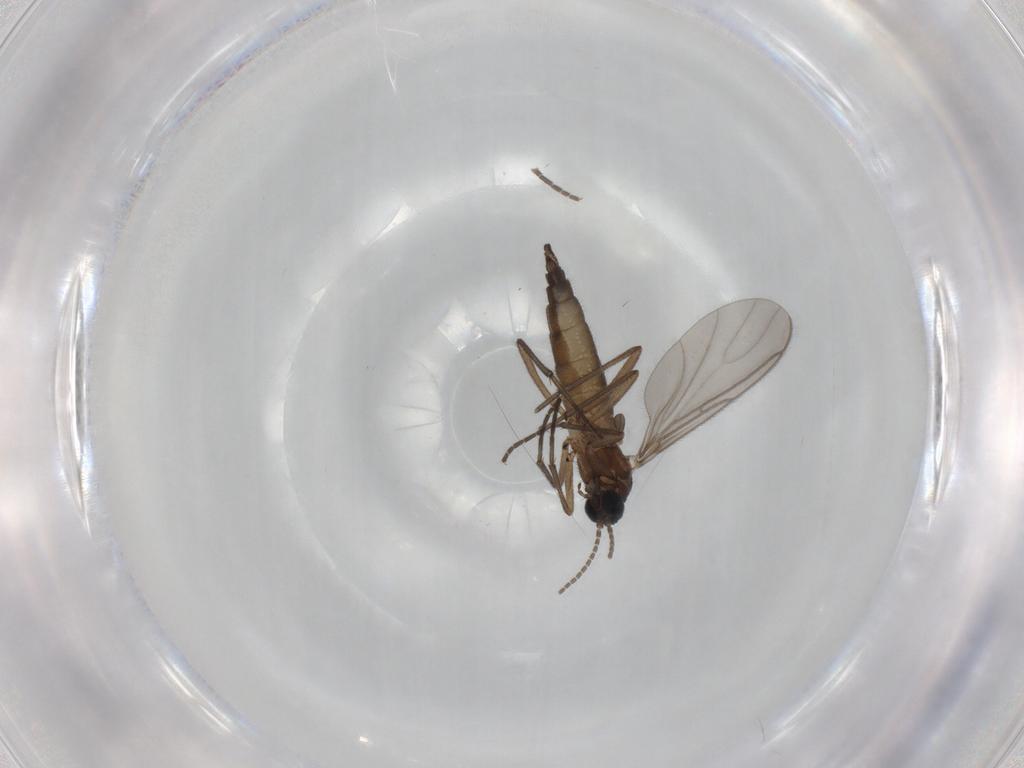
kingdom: Animalia
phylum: Arthropoda
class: Insecta
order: Diptera
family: Sciaridae
